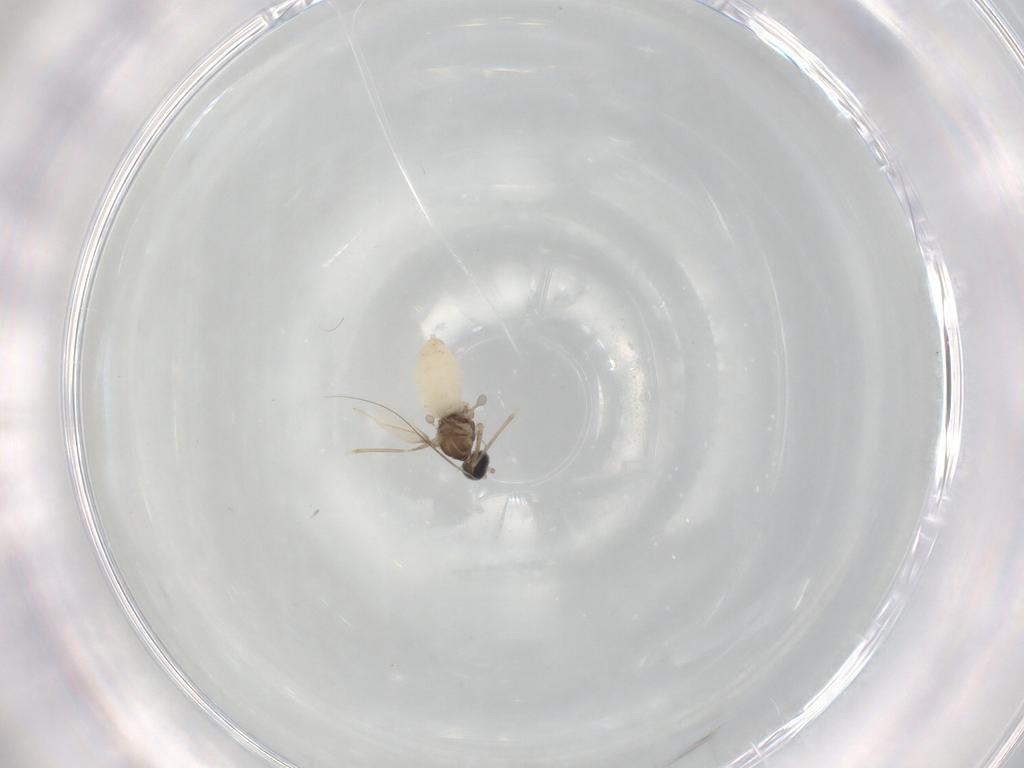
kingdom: Animalia
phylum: Arthropoda
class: Insecta
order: Diptera
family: Cecidomyiidae
